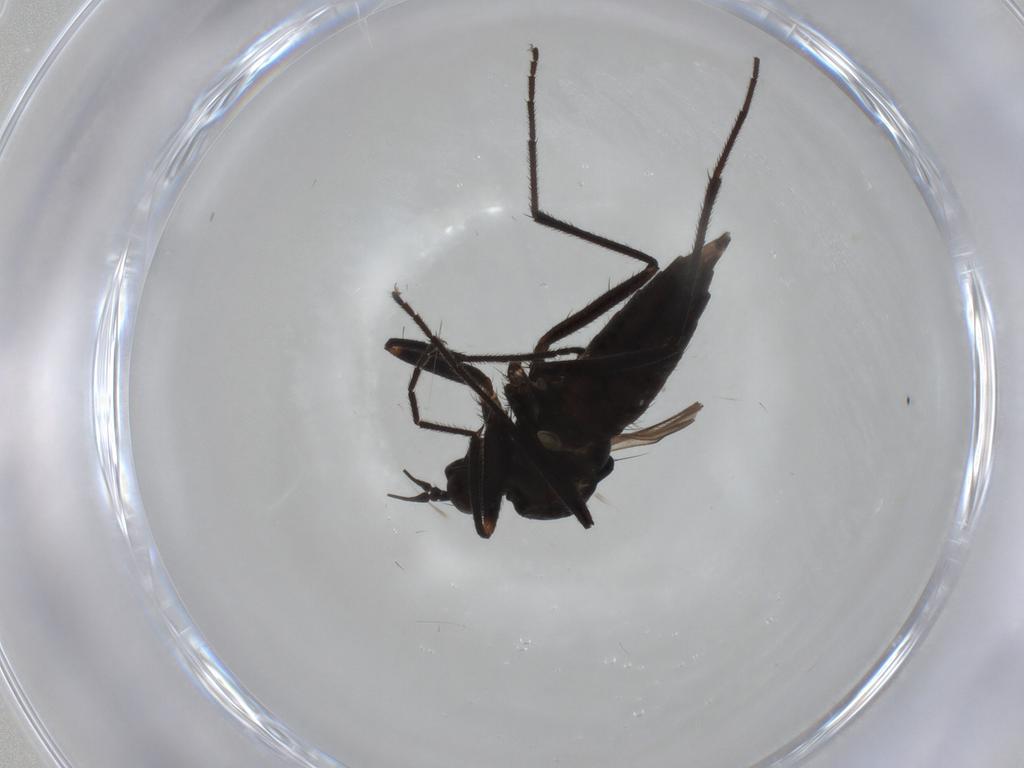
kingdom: Animalia
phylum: Arthropoda
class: Insecta
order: Diptera
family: Empididae
